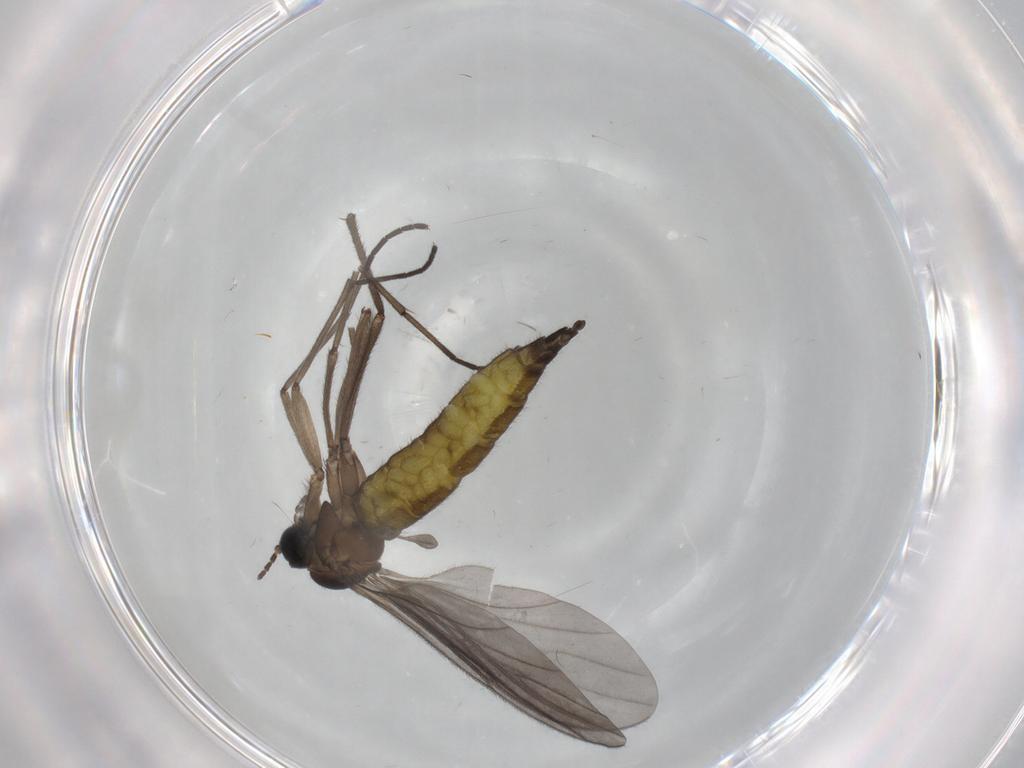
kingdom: Animalia
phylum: Arthropoda
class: Insecta
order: Diptera
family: Sciaridae
